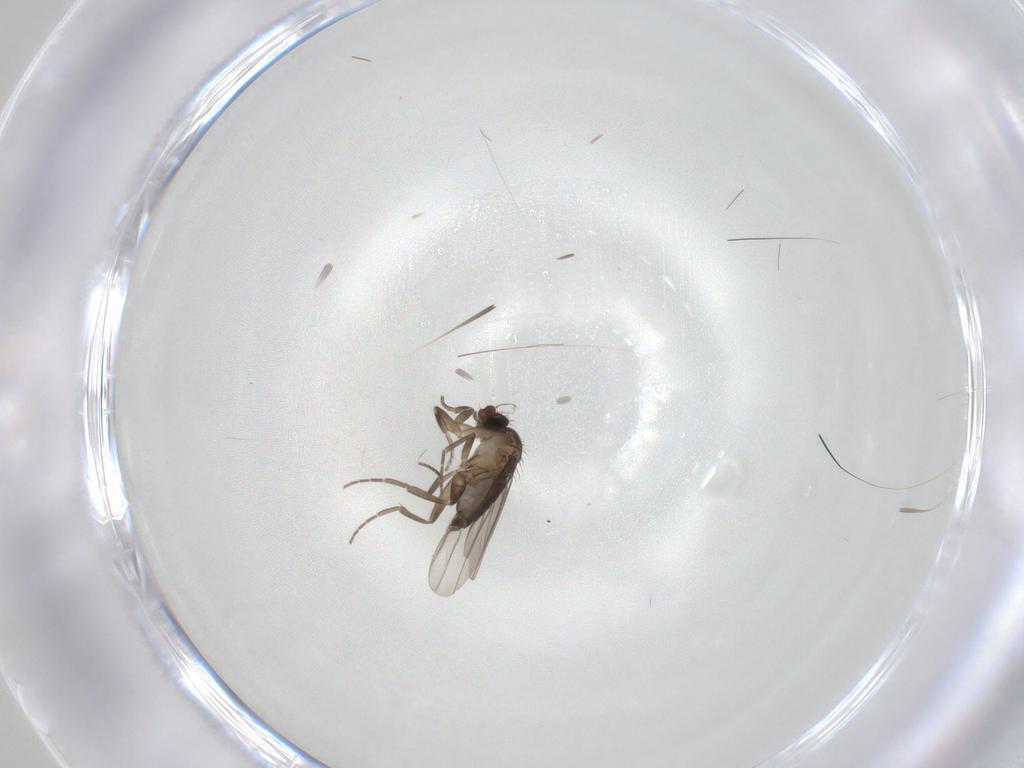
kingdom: Animalia
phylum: Arthropoda
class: Insecta
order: Diptera
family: Phoridae
